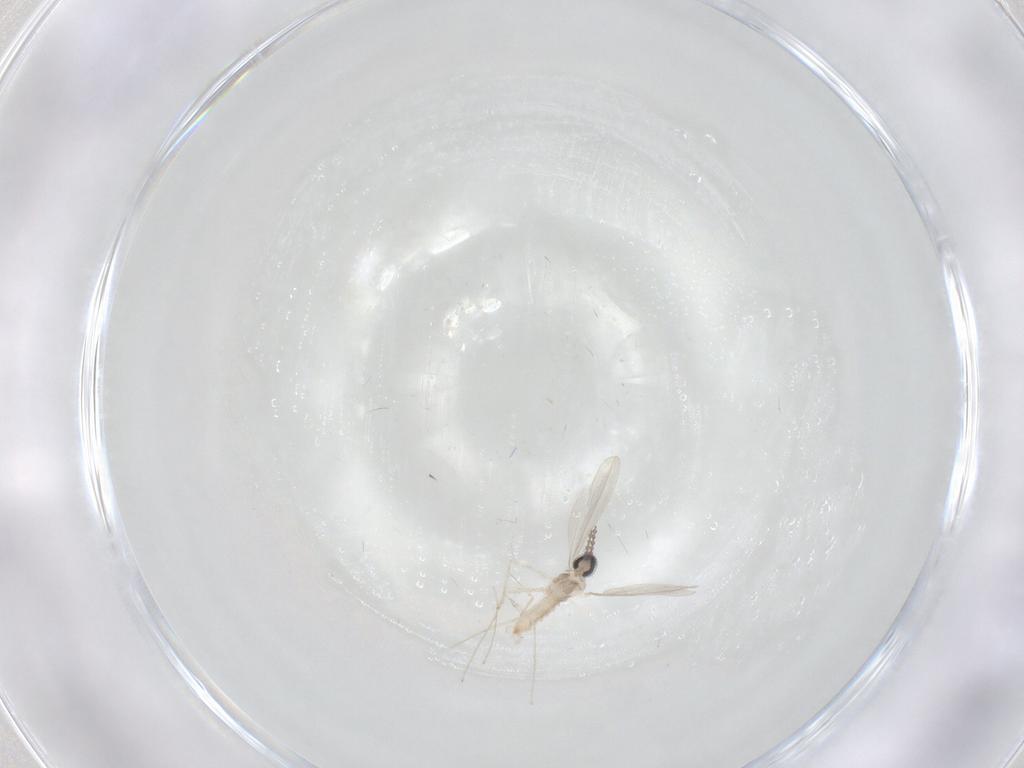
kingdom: Animalia
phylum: Arthropoda
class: Insecta
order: Diptera
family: Cecidomyiidae
